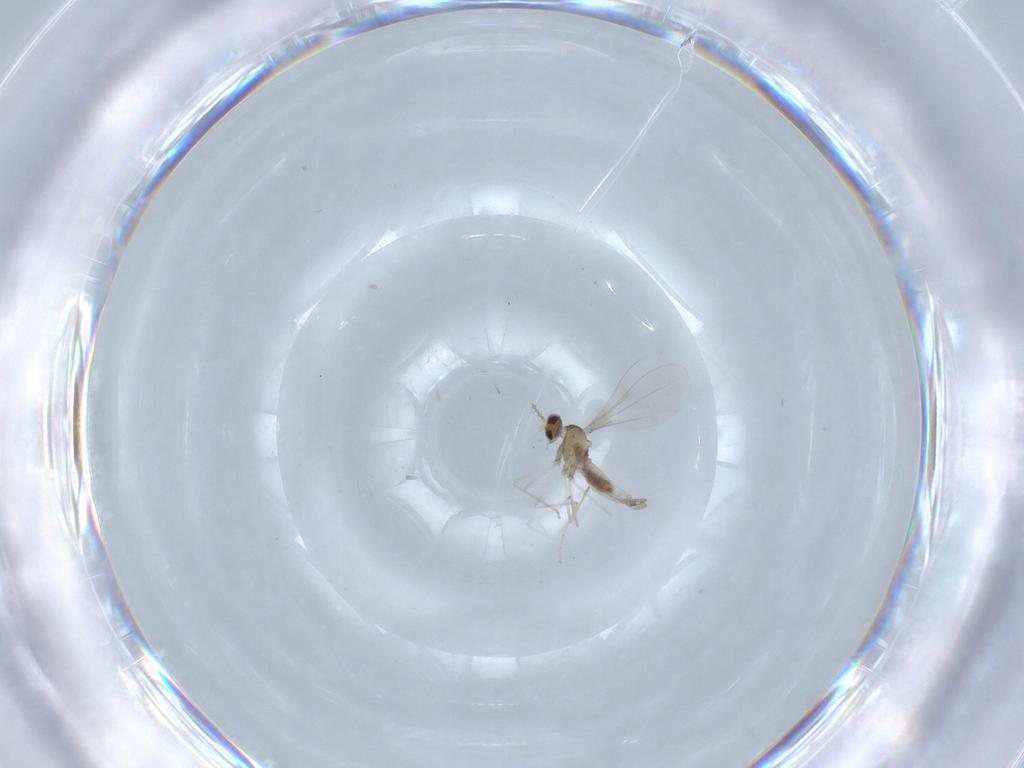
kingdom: Animalia
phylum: Arthropoda
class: Insecta
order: Diptera
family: Cecidomyiidae
